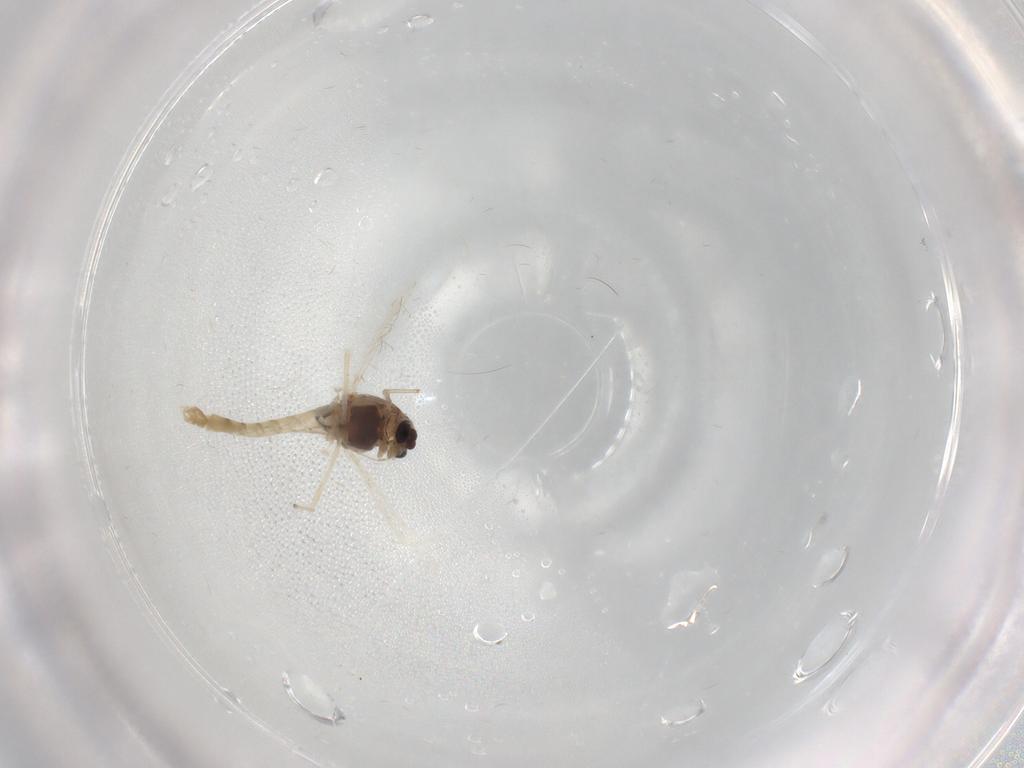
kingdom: Animalia
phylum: Arthropoda
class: Insecta
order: Diptera
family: Chironomidae
